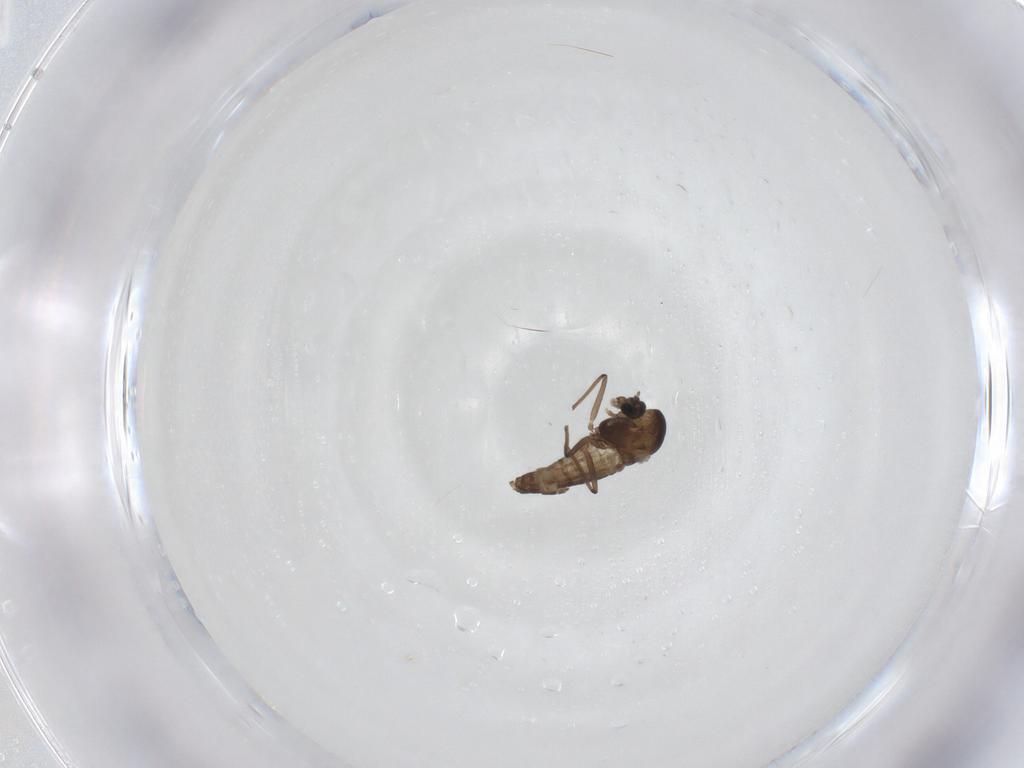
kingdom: Animalia
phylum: Arthropoda
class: Insecta
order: Diptera
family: Chironomidae
